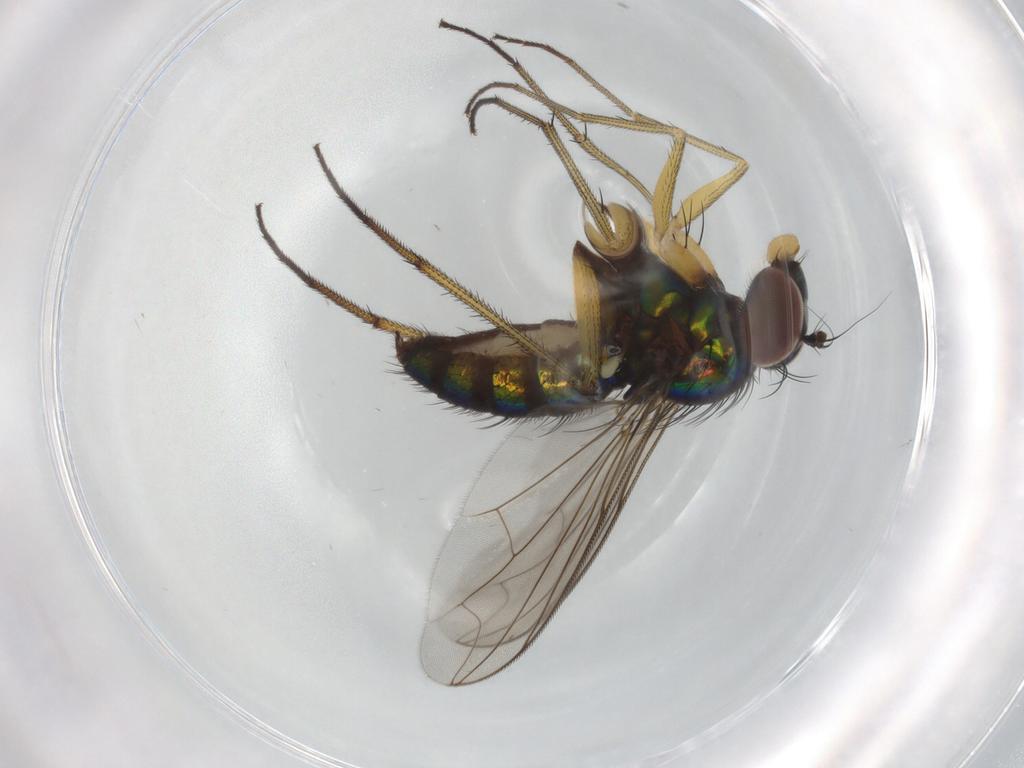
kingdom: Animalia
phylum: Arthropoda
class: Insecta
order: Diptera
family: Dolichopodidae
